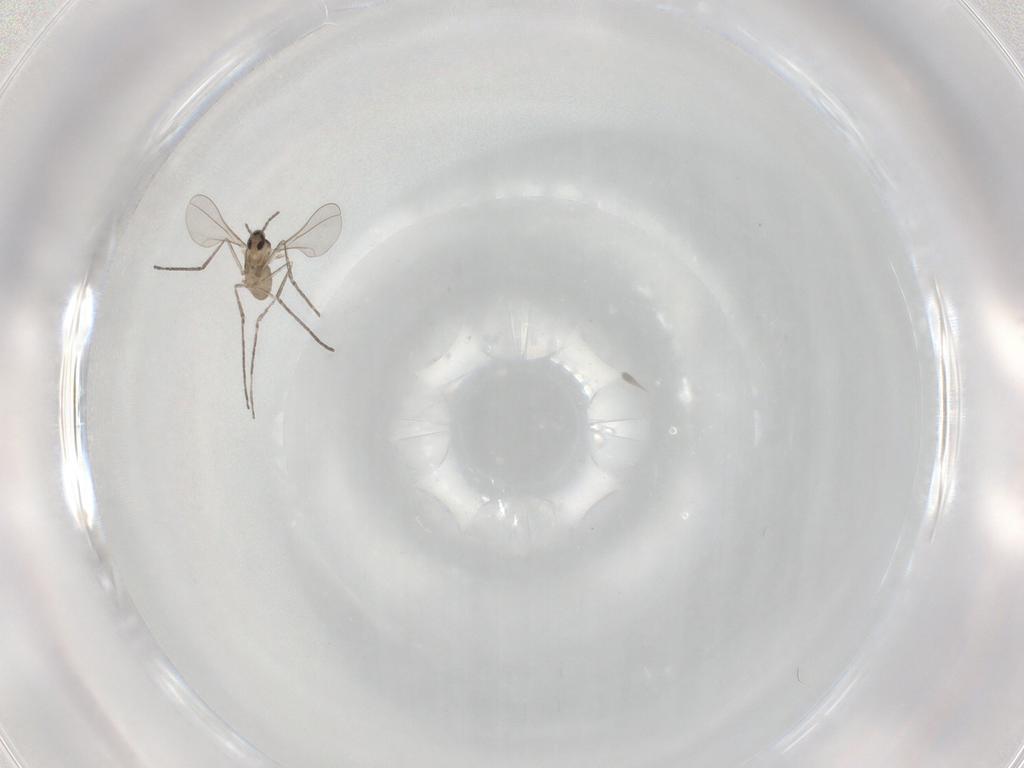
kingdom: Animalia
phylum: Arthropoda
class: Insecta
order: Diptera
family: Cecidomyiidae
